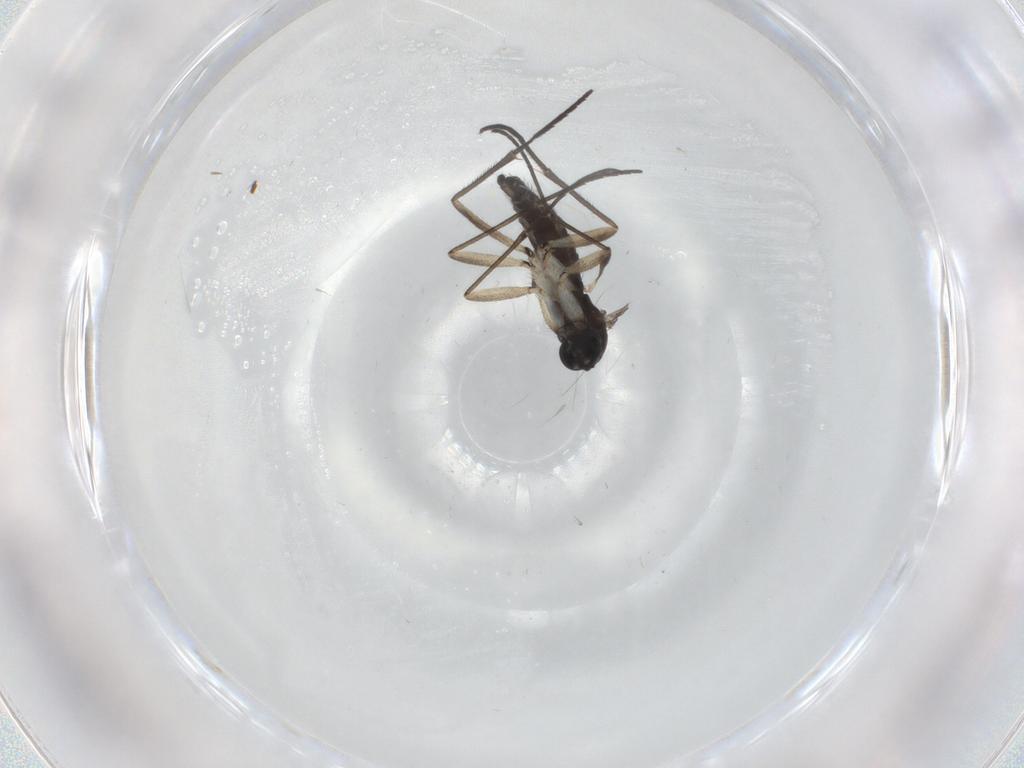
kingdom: Animalia
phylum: Arthropoda
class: Insecta
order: Diptera
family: Sciaridae
